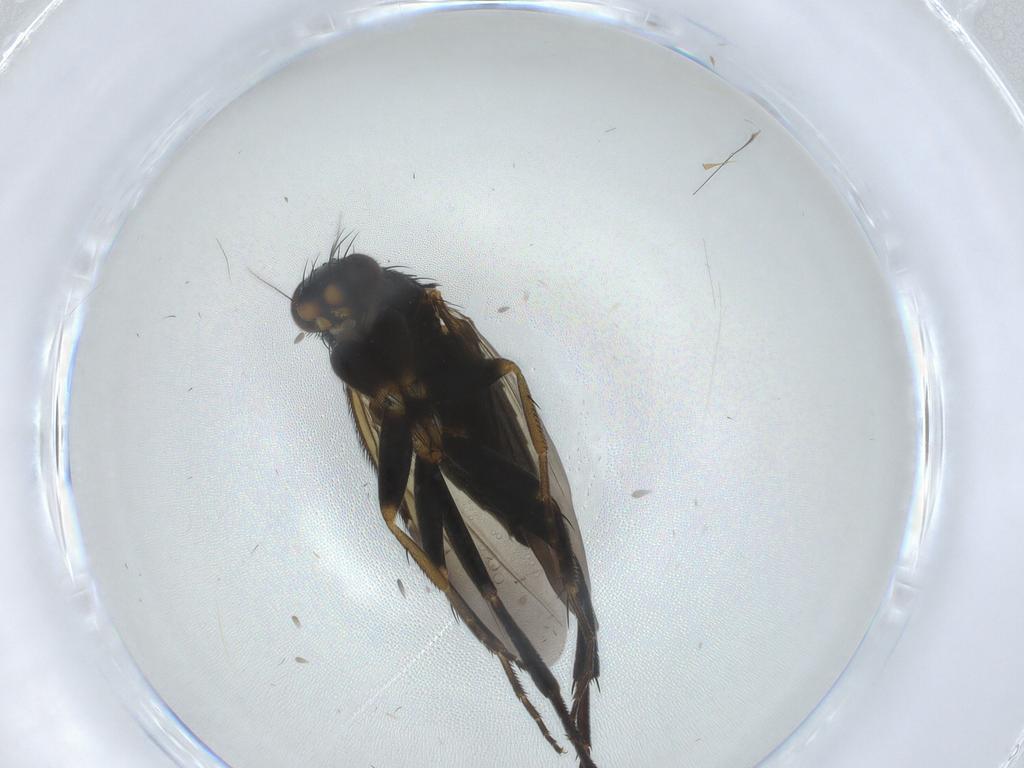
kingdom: Animalia
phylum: Arthropoda
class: Insecta
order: Diptera
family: Phoridae
